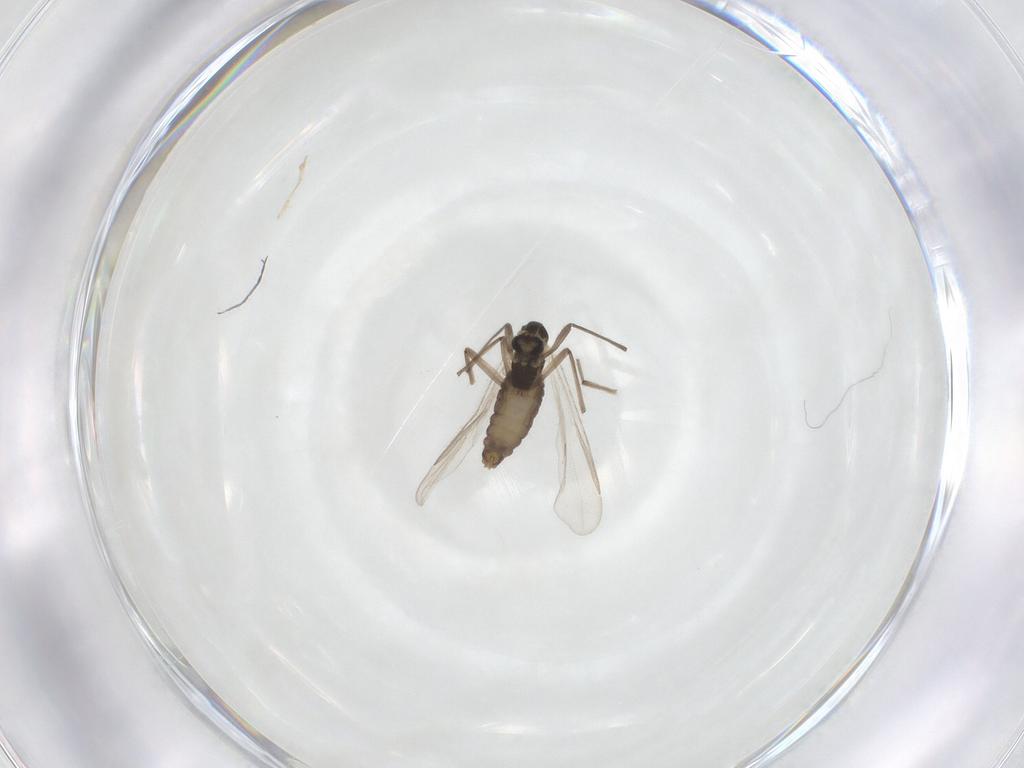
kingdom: Animalia
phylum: Arthropoda
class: Insecta
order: Diptera
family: Chironomidae
